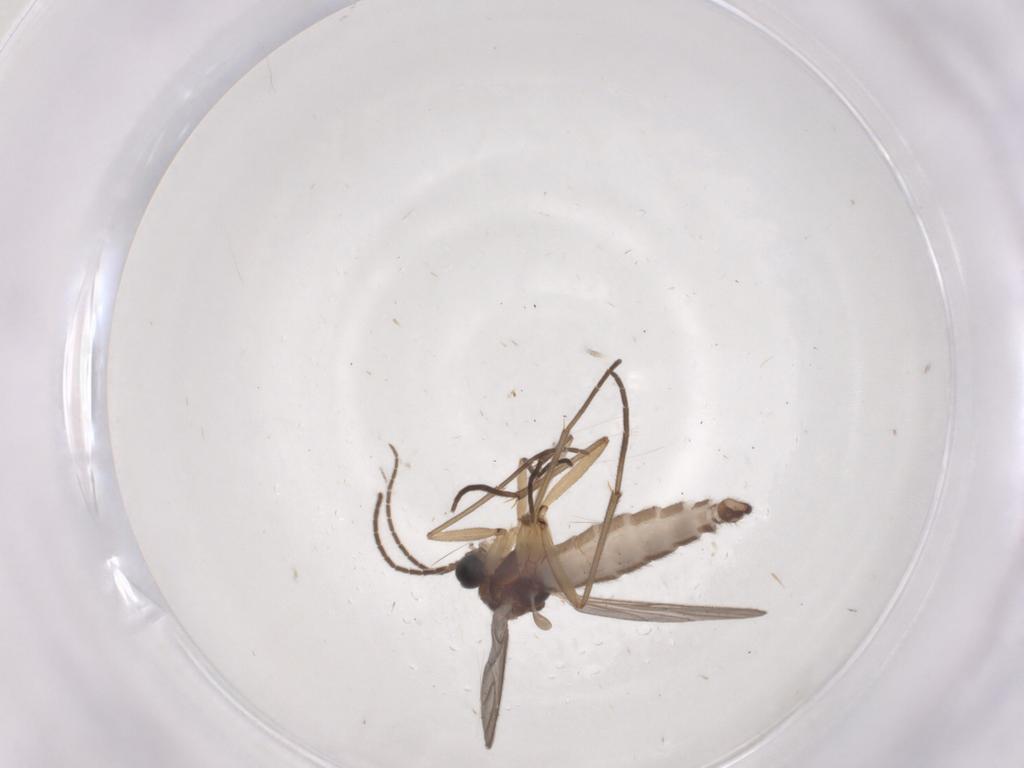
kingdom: Animalia
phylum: Arthropoda
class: Insecta
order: Diptera
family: Sciaridae
